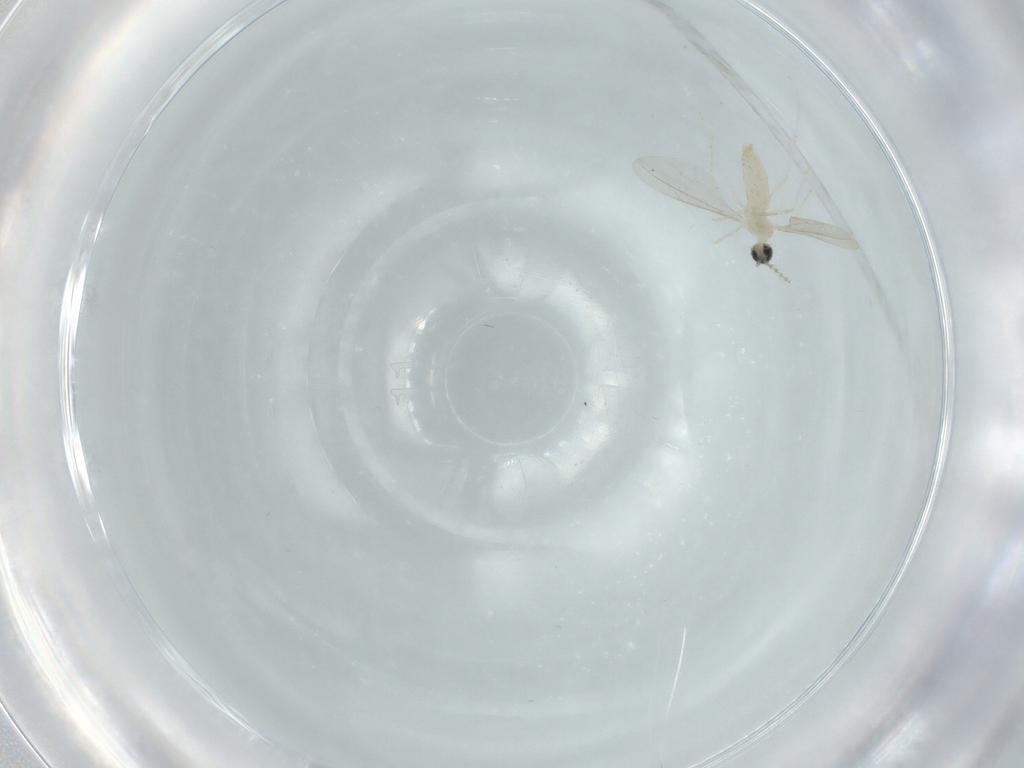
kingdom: Animalia
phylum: Arthropoda
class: Insecta
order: Diptera
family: Cecidomyiidae
